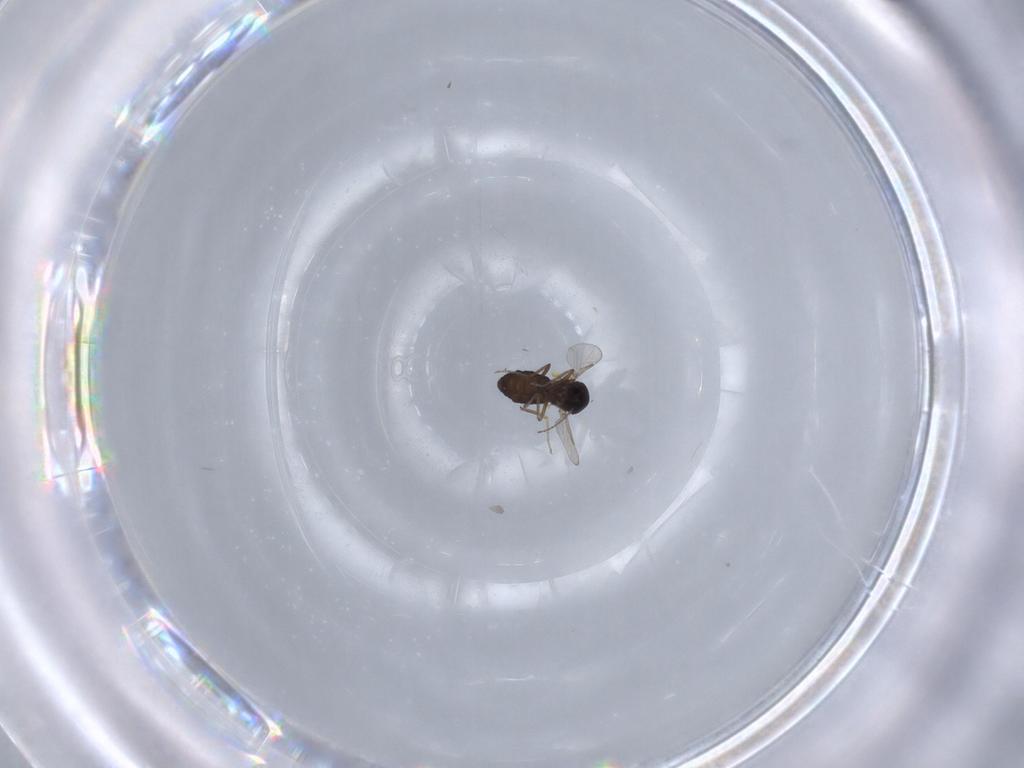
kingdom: Animalia
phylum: Arthropoda
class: Insecta
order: Diptera
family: Ceratopogonidae
